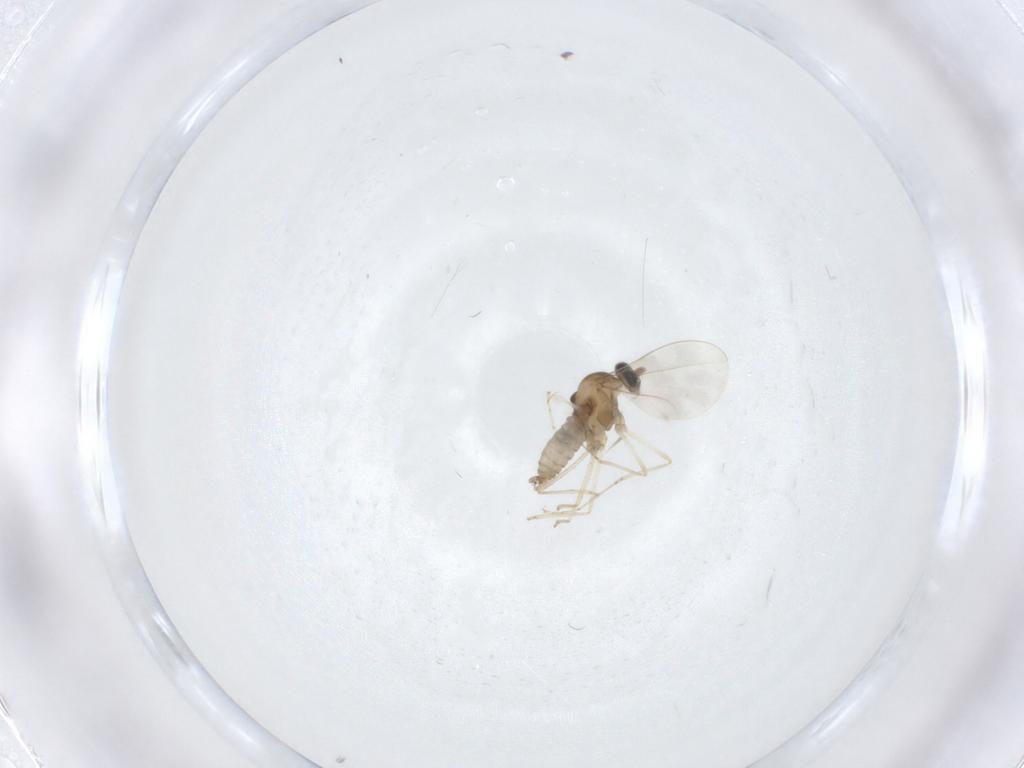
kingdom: Animalia
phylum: Arthropoda
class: Insecta
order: Diptera
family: Cecidomyiidae
